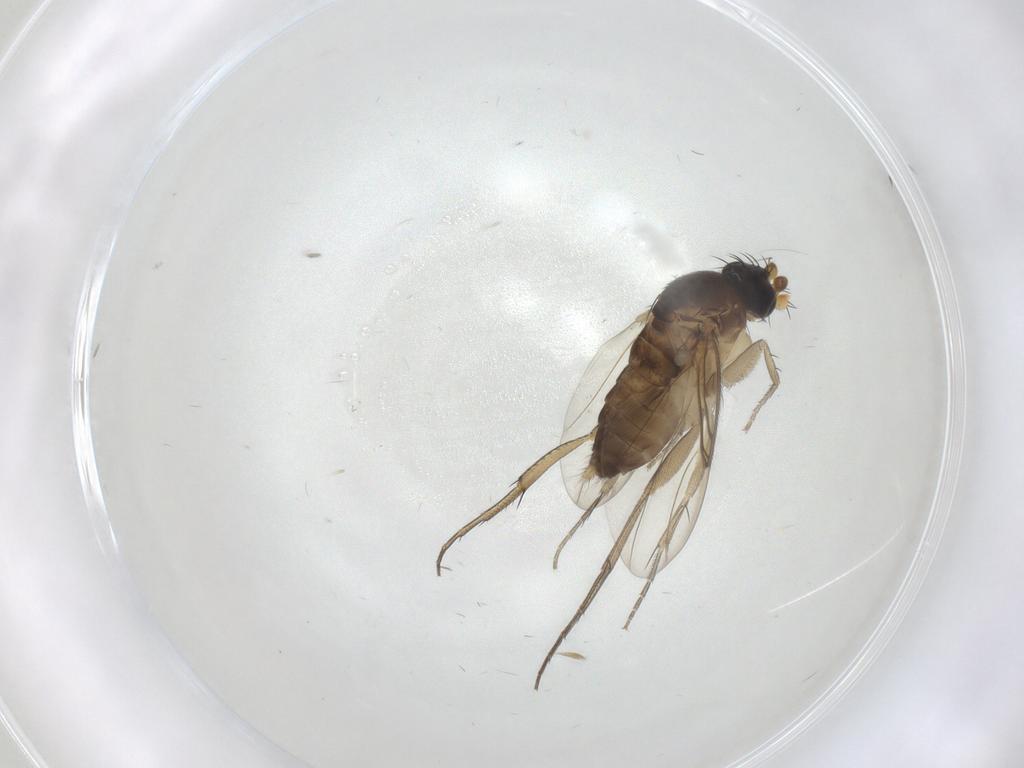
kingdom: Animalia
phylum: Arthropoda
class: Insecta
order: Diptera
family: Phoridae
